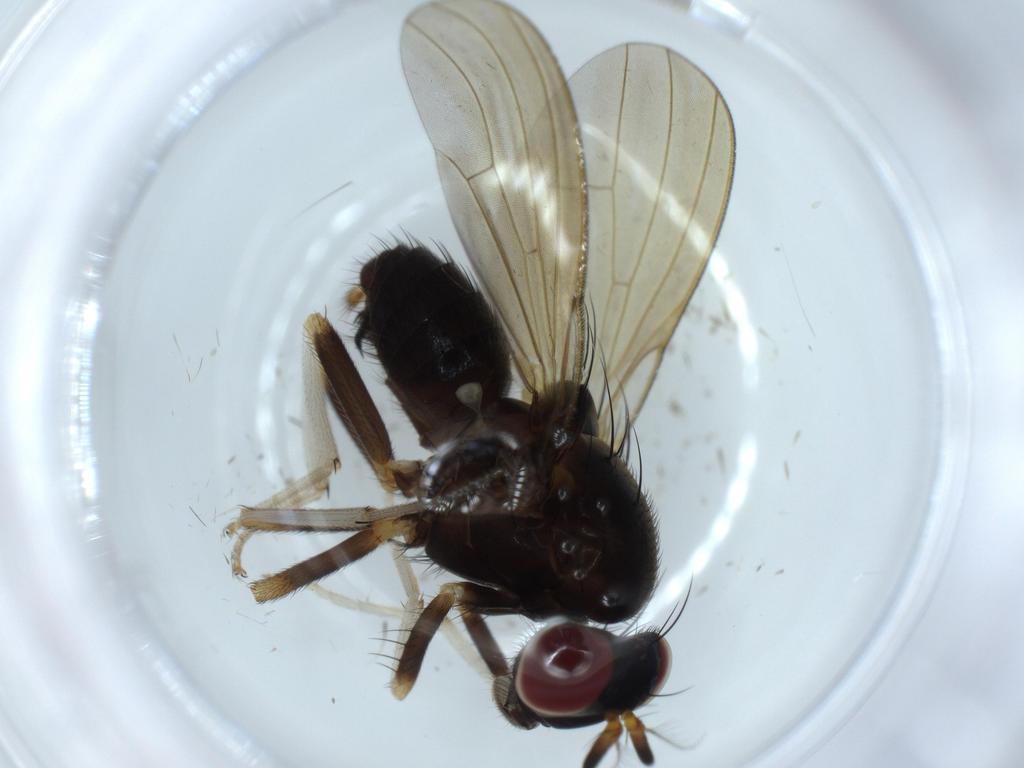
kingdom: Animalia
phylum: Arthropoda
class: Insecta
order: Diptera
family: Drosophilidae
